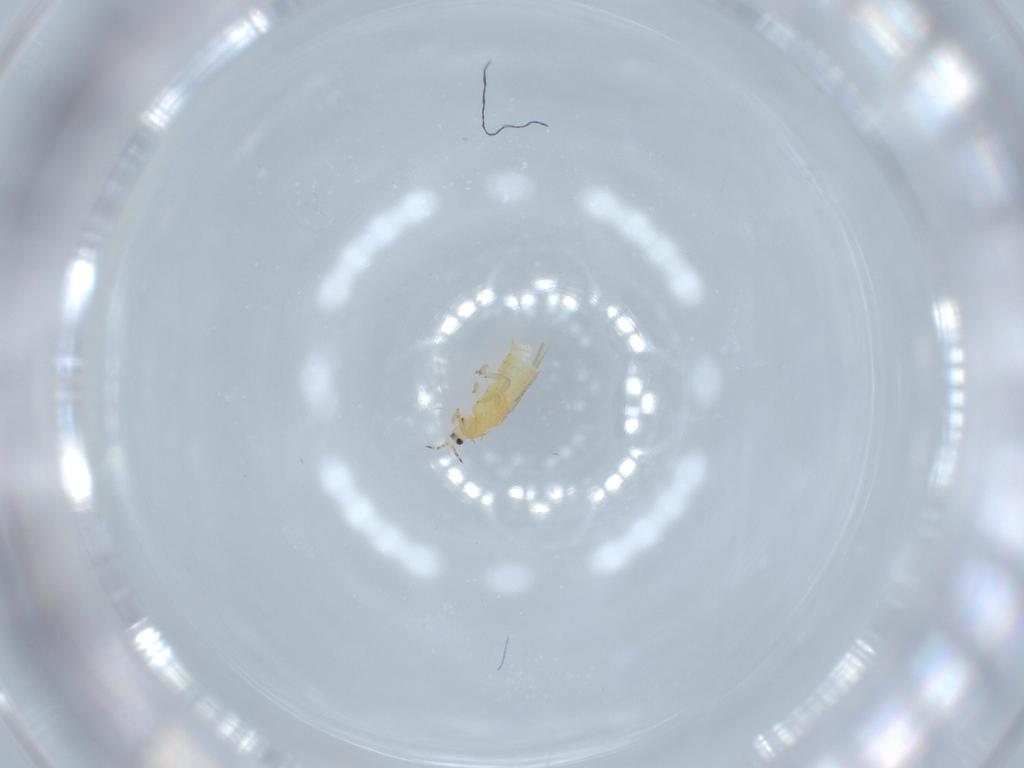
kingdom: Animalia
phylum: Arthropoda
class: Insecta
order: Thysanoptera
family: Thripidae
